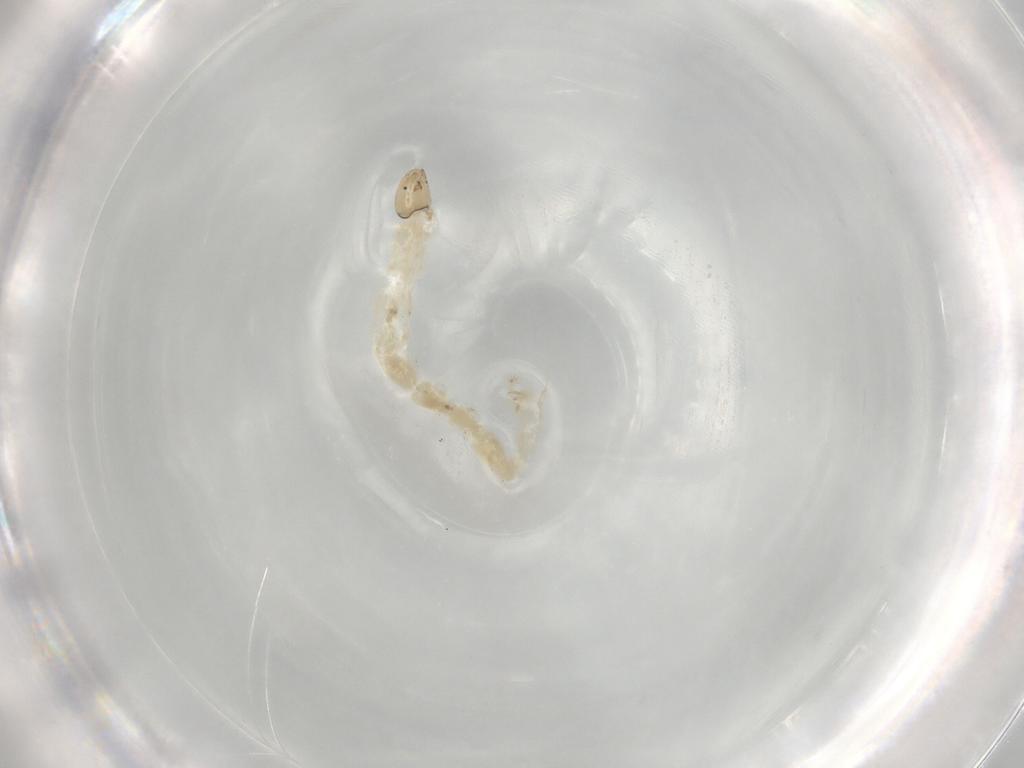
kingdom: Animalia
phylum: Arthropoda
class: Insecta
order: Diptera
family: Chironomidae
